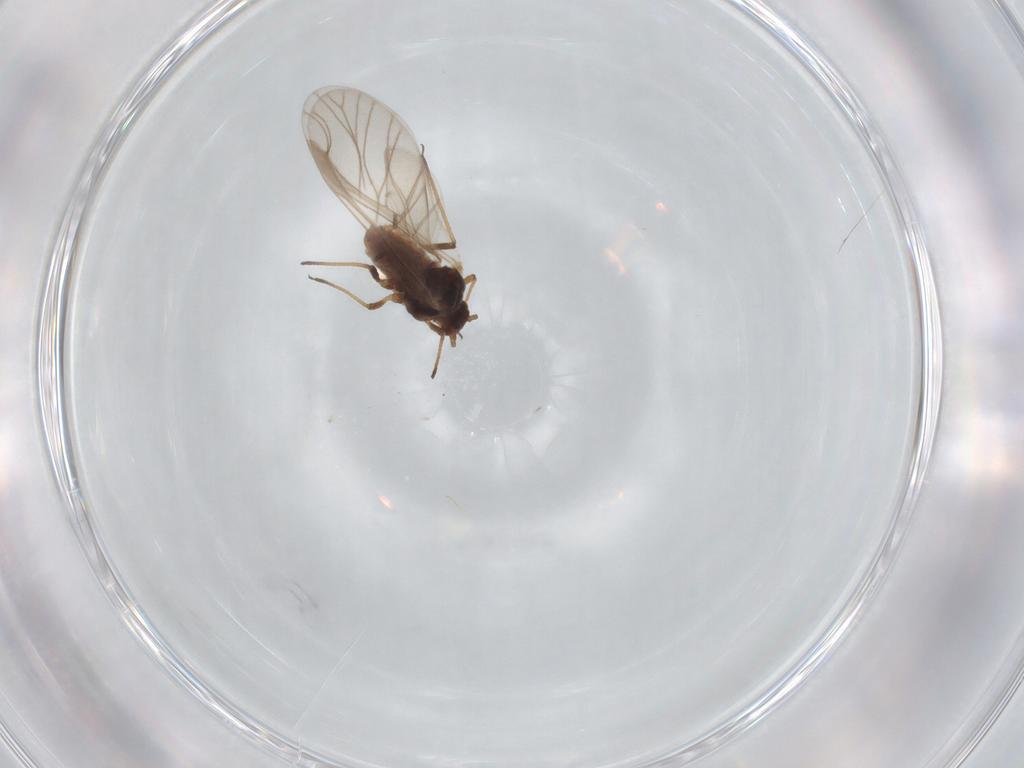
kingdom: Animalia
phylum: Arthropoda
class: Insecta
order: Hemiptera
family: Aphididae
